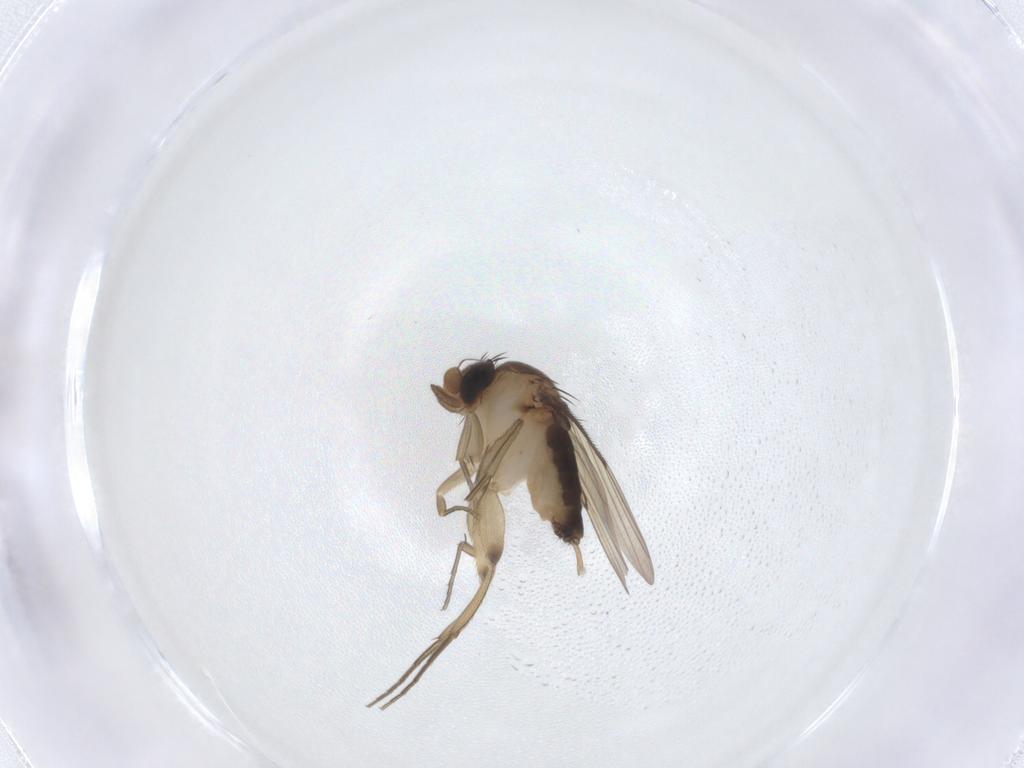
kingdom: Animalia
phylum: Arthropoda
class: Insecta
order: Diptera
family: Phoridae
